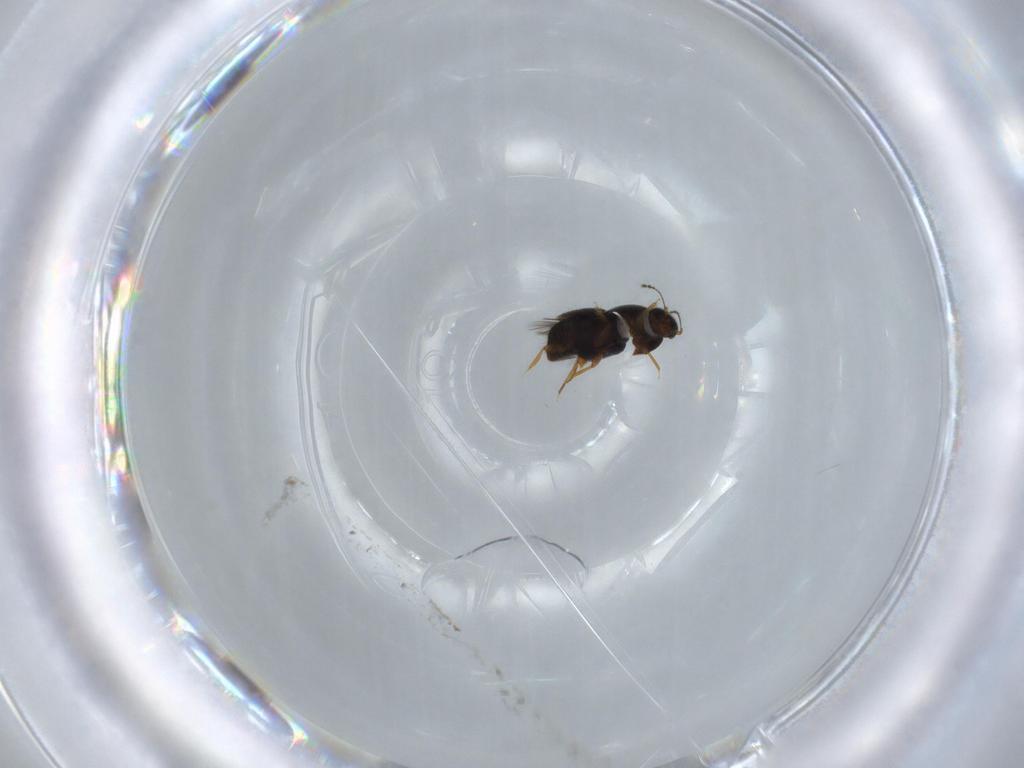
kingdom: Animalia
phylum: Arthropoda
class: Insecta
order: Coleoptera
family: Ptiliidae
